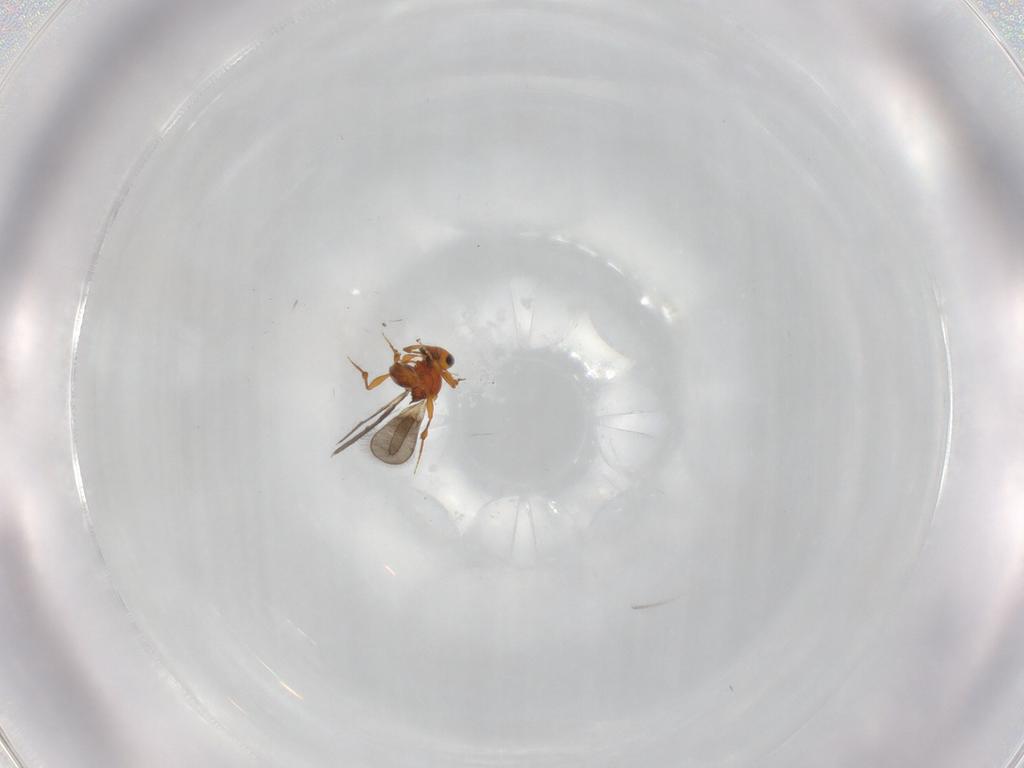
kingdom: Animalia
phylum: Arthropoda
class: Insecta
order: Hymenoptera
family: Platygastridae
